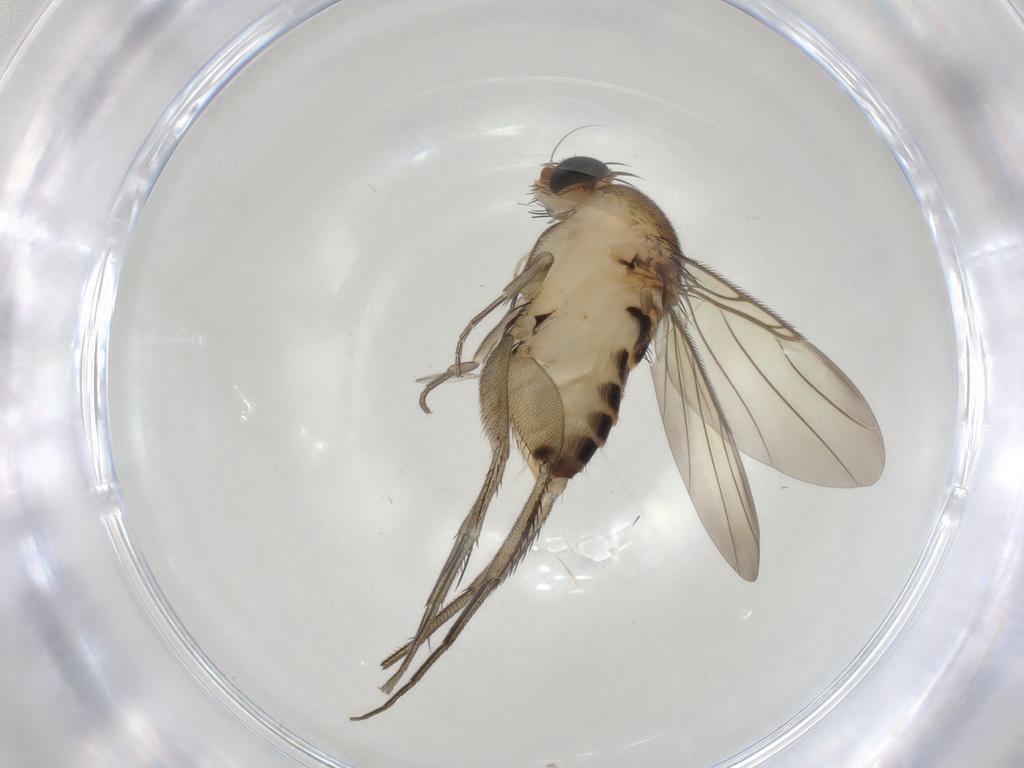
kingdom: Animalia
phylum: Arthropoda
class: Insecta
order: Diptera
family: Phoridae
